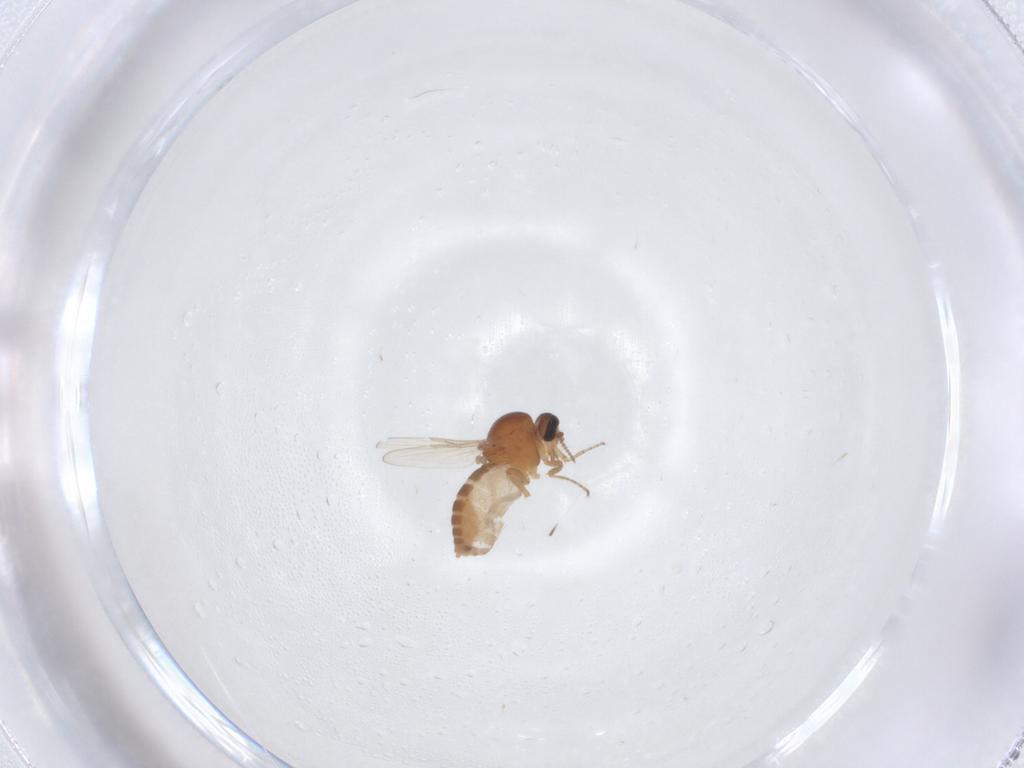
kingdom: Animalia
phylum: Arthropoda
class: Insecta
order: Diptera
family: Ceratopogonidae
